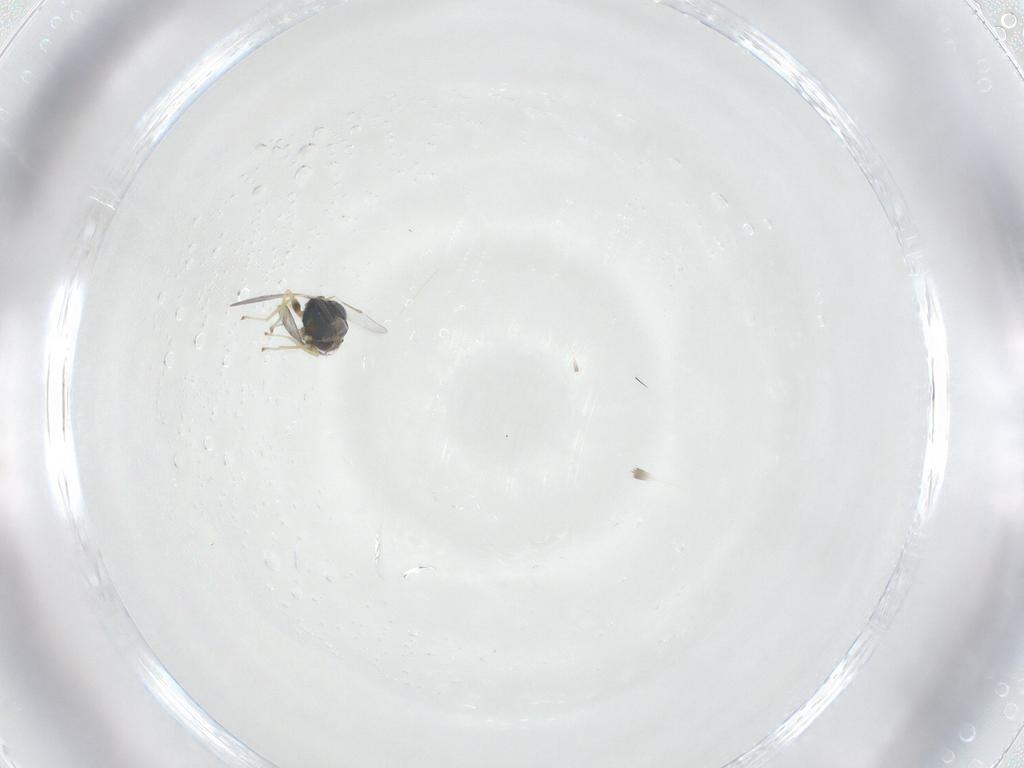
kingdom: Animalia
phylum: Arthropoda
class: Insecta
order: Hymenoptera
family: Eulophidae
